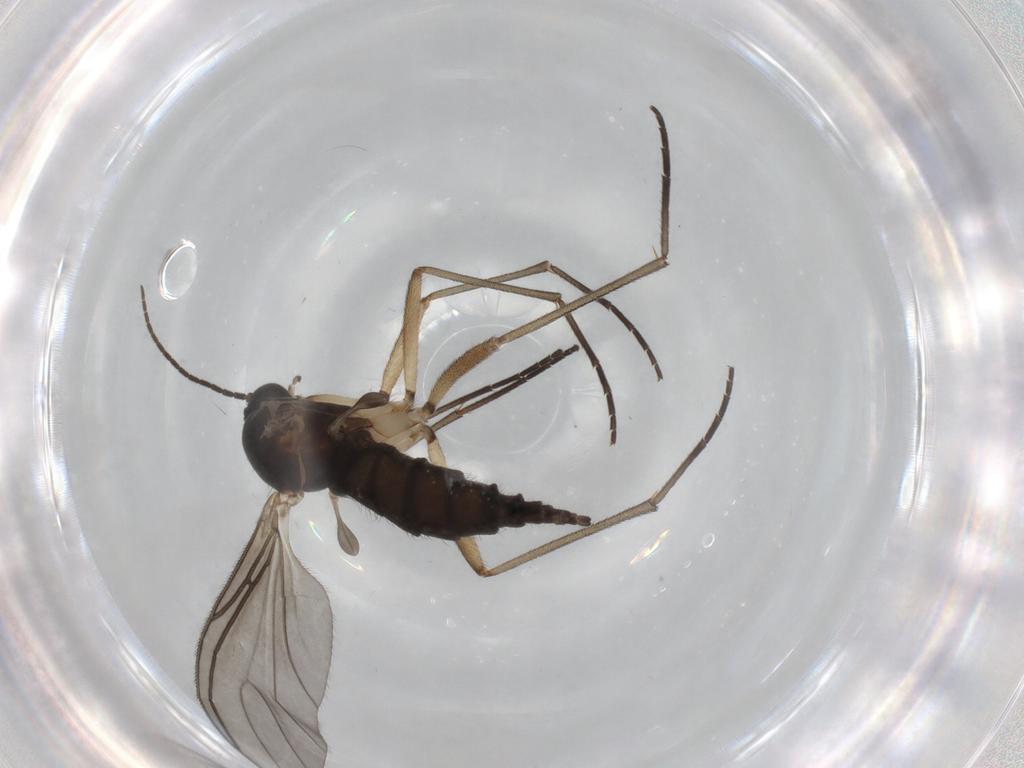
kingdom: Animalia
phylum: Arthropoda
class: Insecta
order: Diptera
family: Sciaridae
